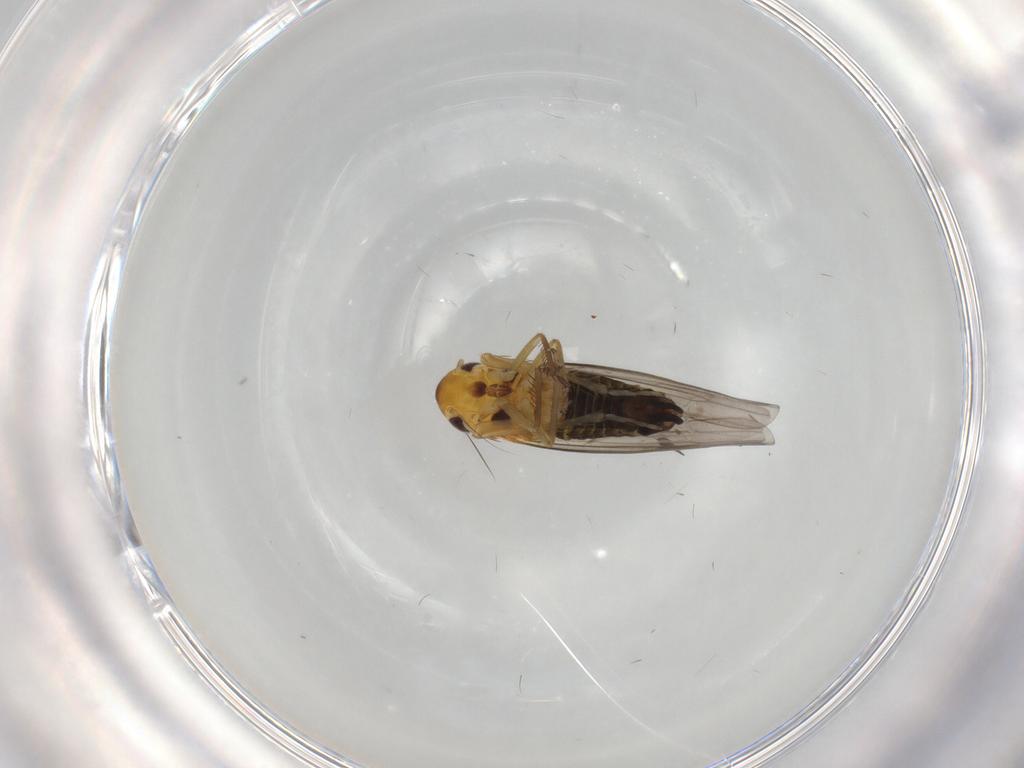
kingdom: Animalia
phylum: Arthropoda
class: Insecta
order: Hemiptera
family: Cicadellidae
